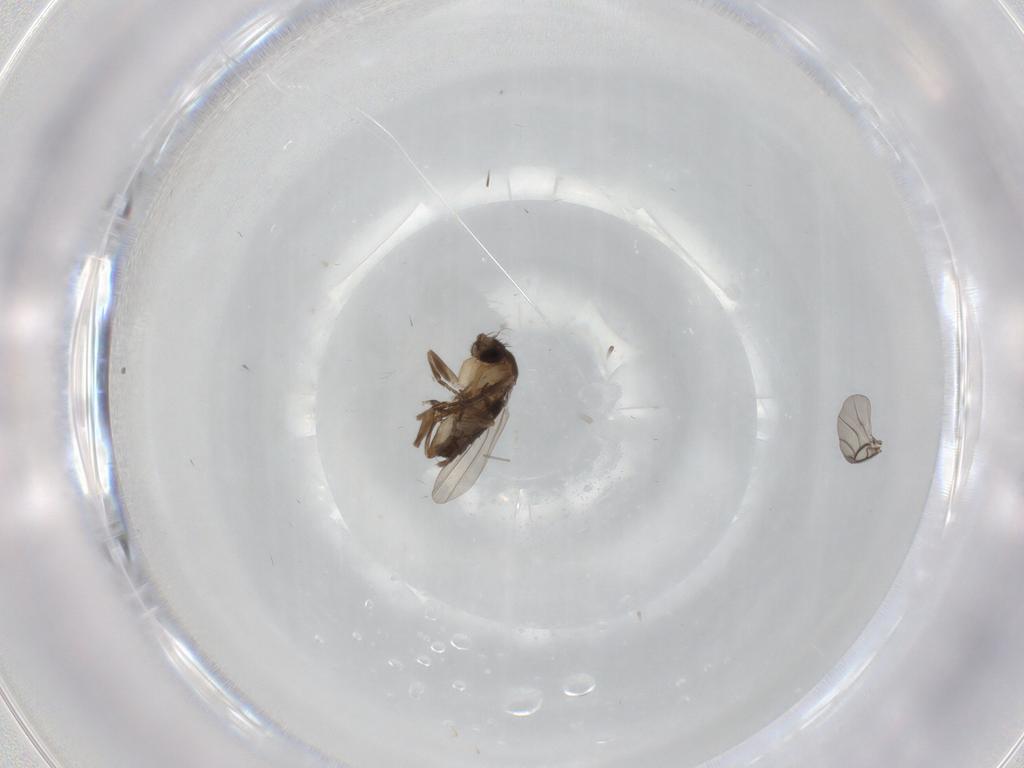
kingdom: Animalia
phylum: Arthropoda
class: Insecta
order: Diptera
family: Phoridae
